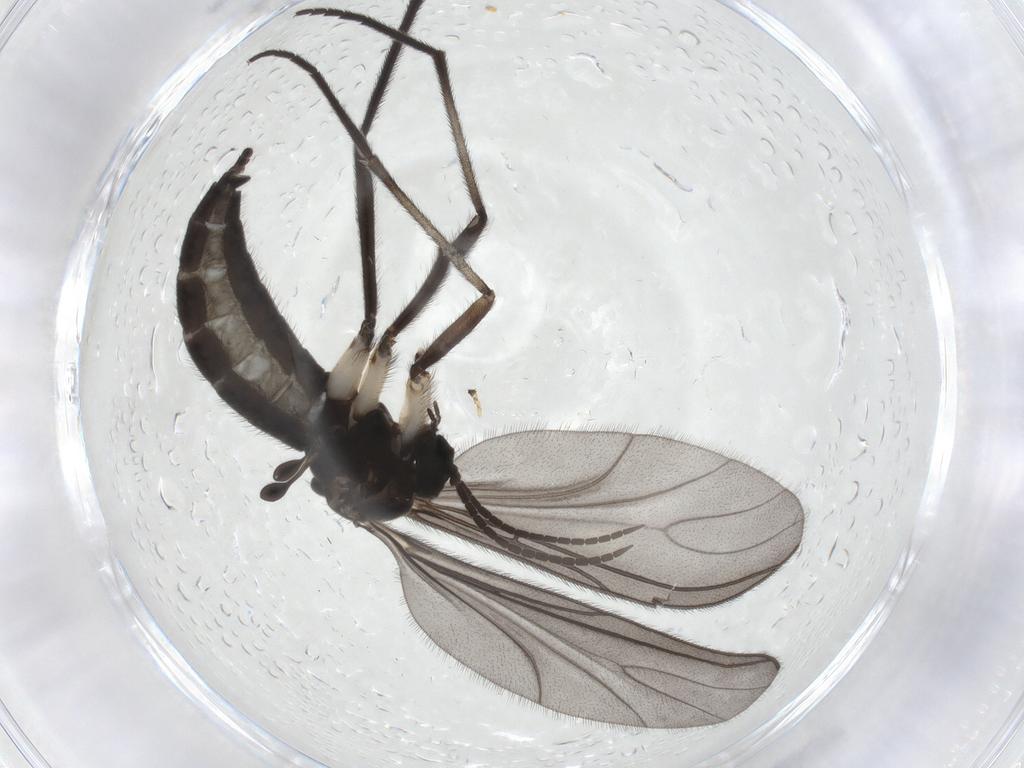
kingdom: Animalia
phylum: Arthropoda
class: Insecta
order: Diptera
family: Sciaridae
